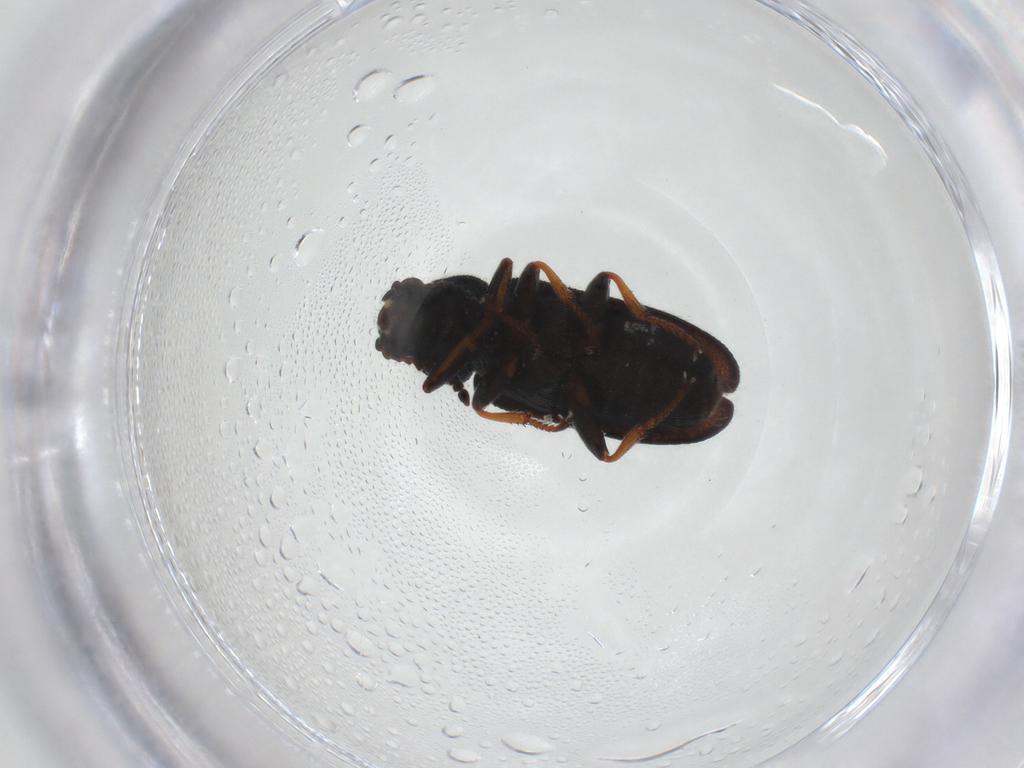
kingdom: Animalia
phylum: Arthropoda
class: Insecta
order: Coleoptera
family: Melyridae
